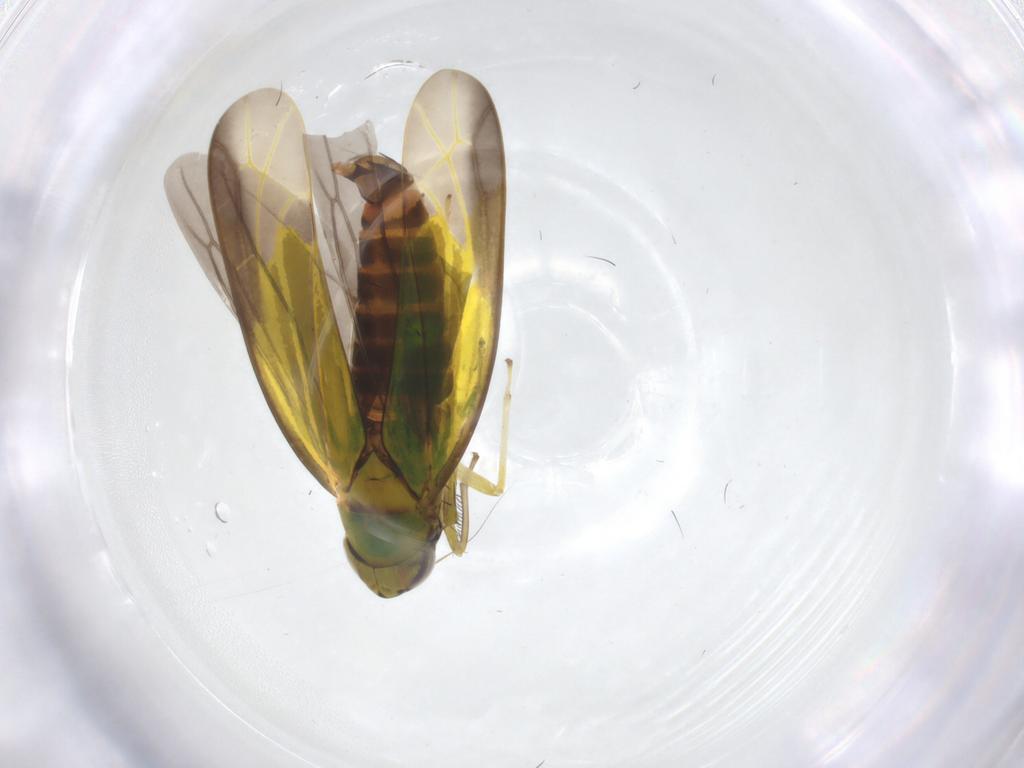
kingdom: Animalia
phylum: Arthropoda
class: Insecta
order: Hemiptera
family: Cicadellidae
